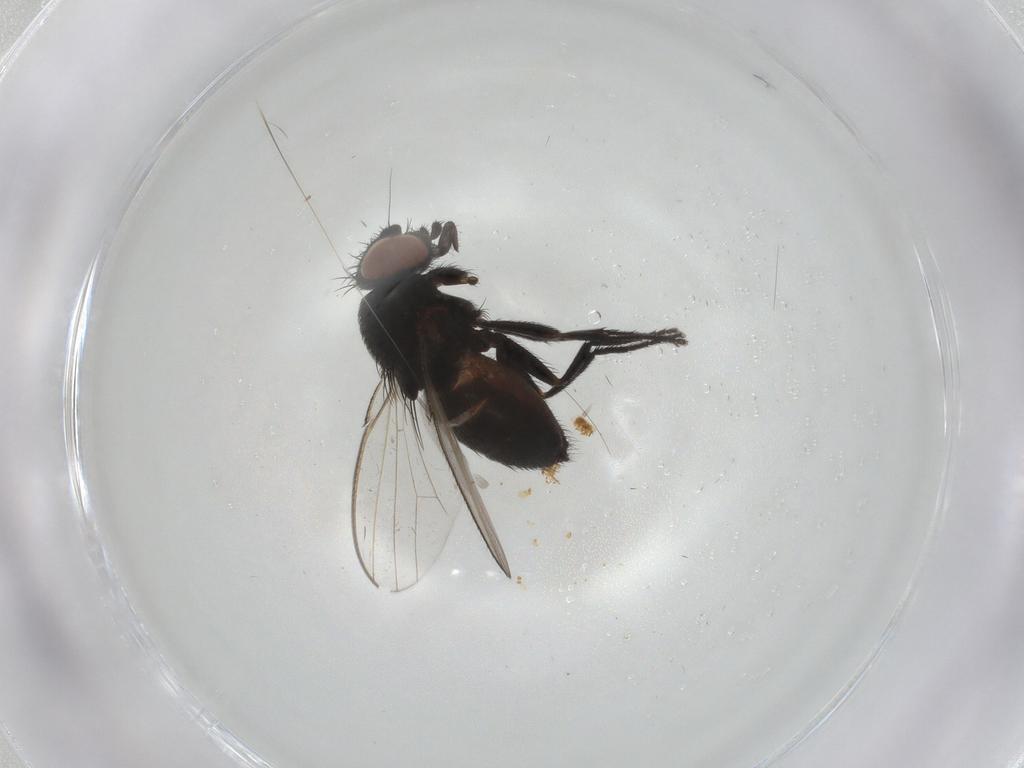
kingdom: Animalia
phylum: Arthropoda
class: Insecta
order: Diptera
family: Milichiidae
